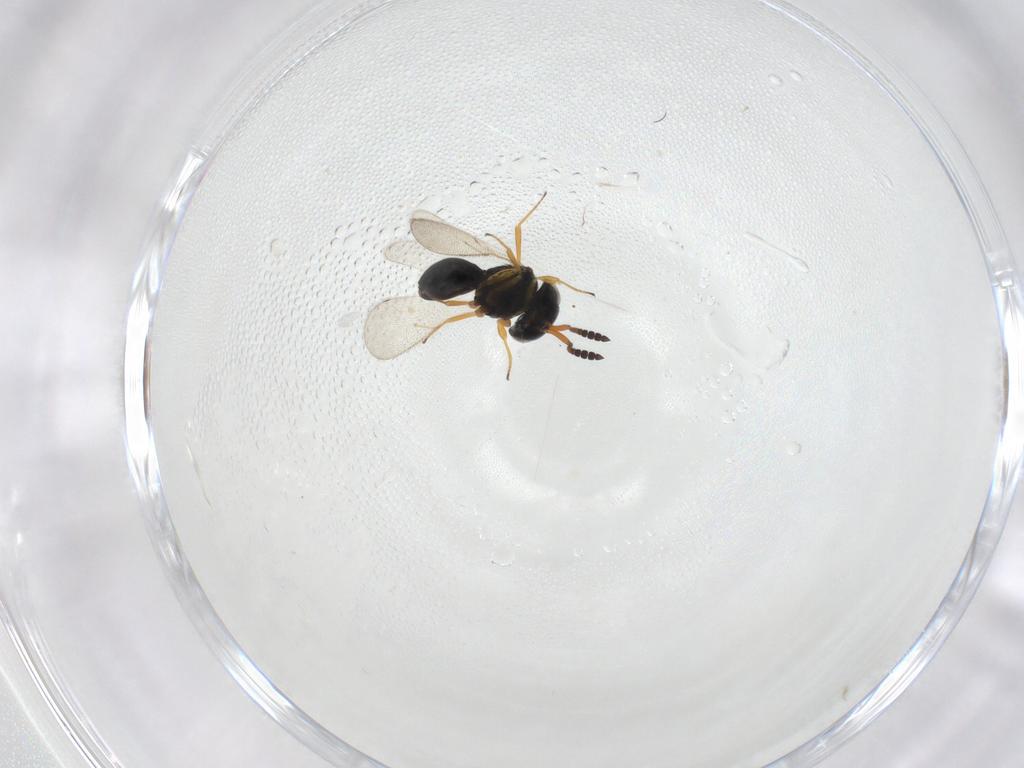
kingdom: Animalia
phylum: Arthropoda
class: Insecta
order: Hymenoptera
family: Scelionidae
